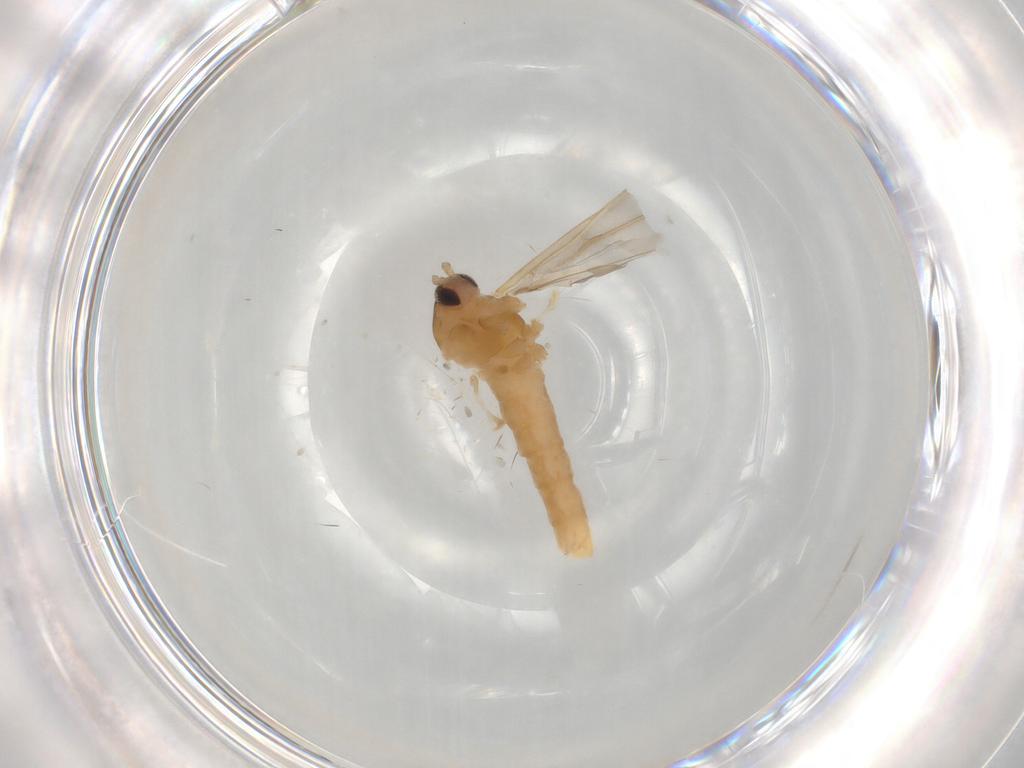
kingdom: Animalia
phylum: Arthropoda
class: Insecta
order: Diptera
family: Cecidomyiidae
